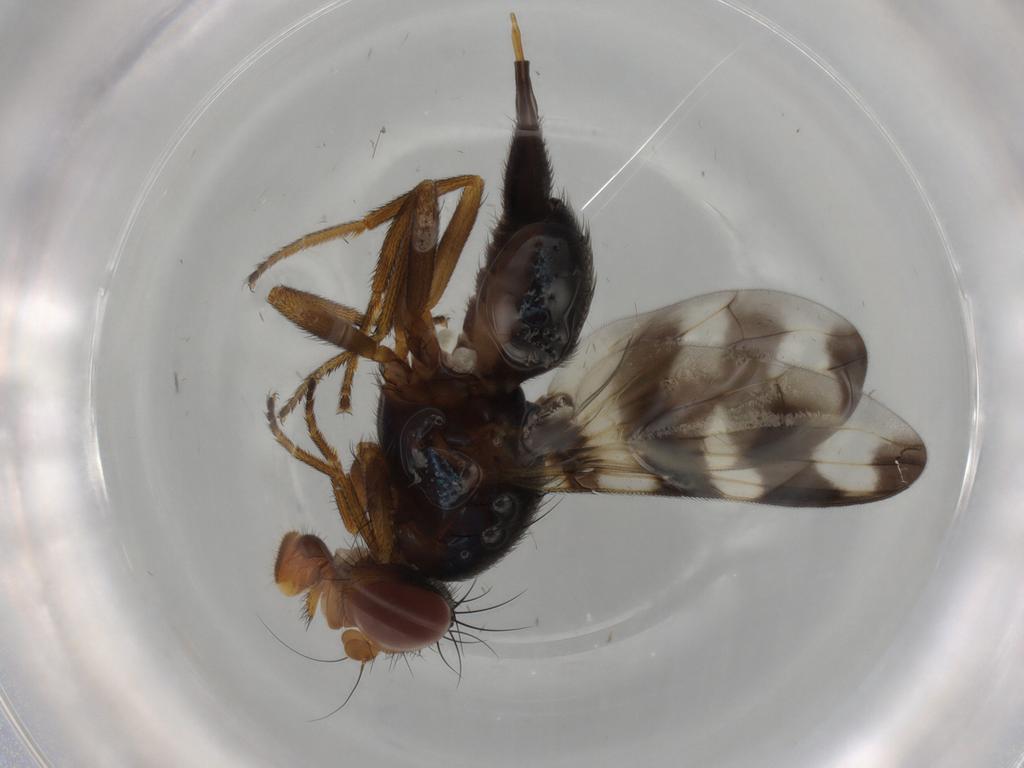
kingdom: Animalia
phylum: Arthropoda
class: Insecta
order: Diptera
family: Ulidiidae
